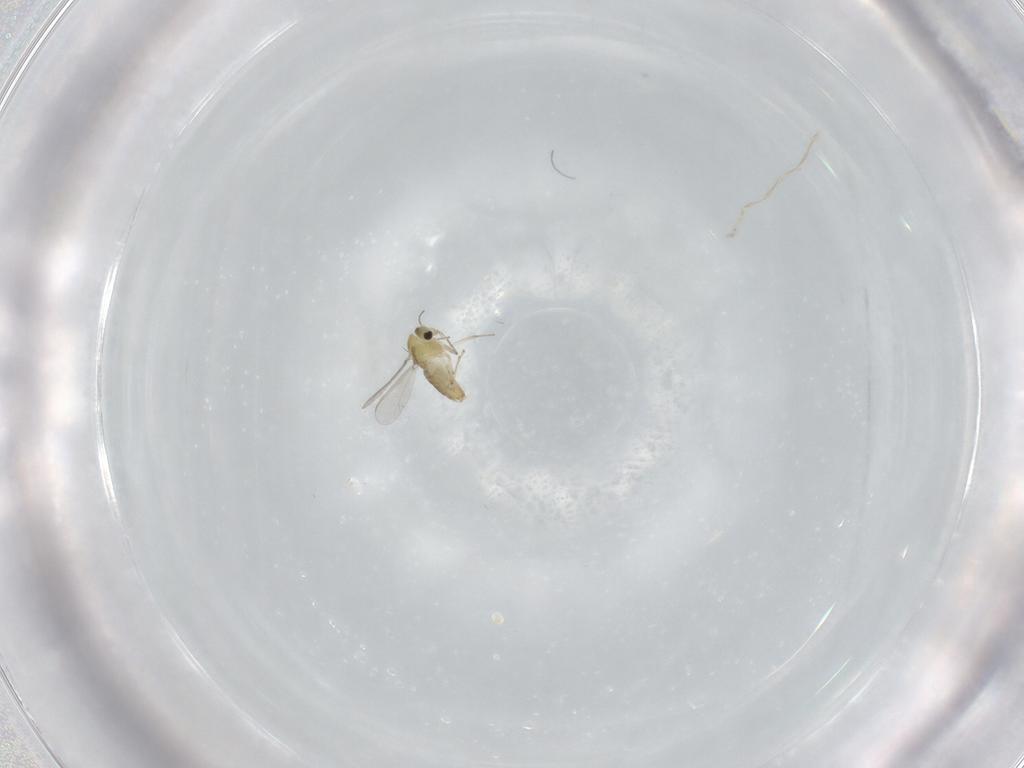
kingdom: Animalia
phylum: Arthropoda
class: Insecta
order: Diptera
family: Chironomidae
